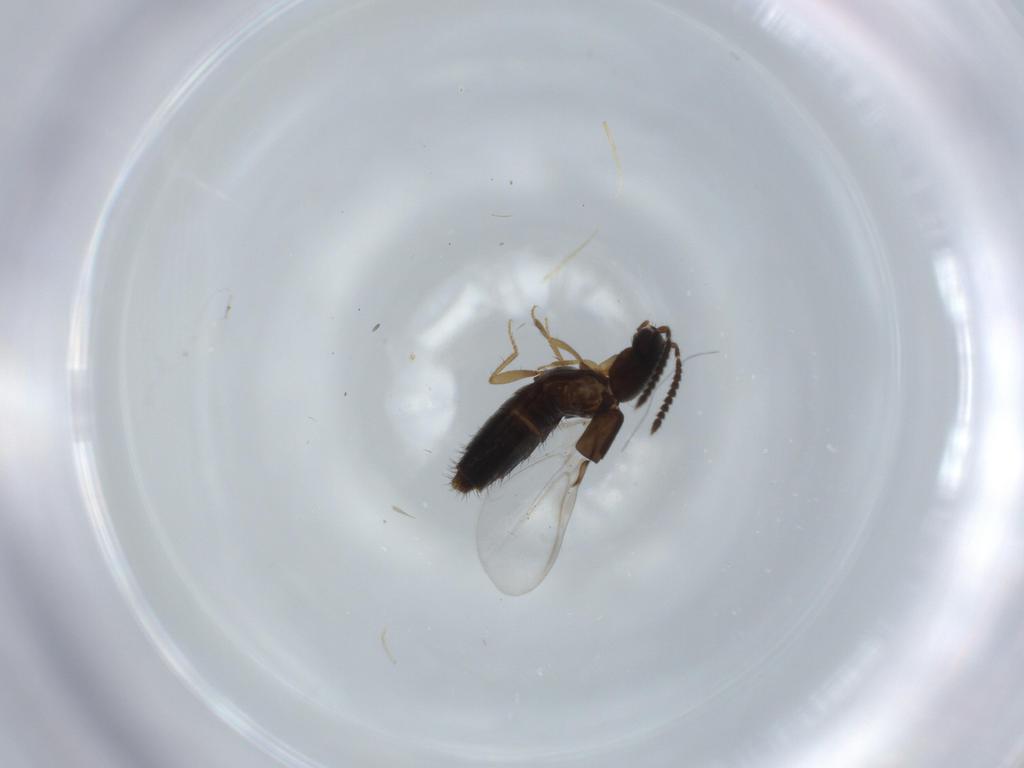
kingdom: Animalia
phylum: Arthropoda
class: Insecta
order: Coleoptera
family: Staphylinidae
